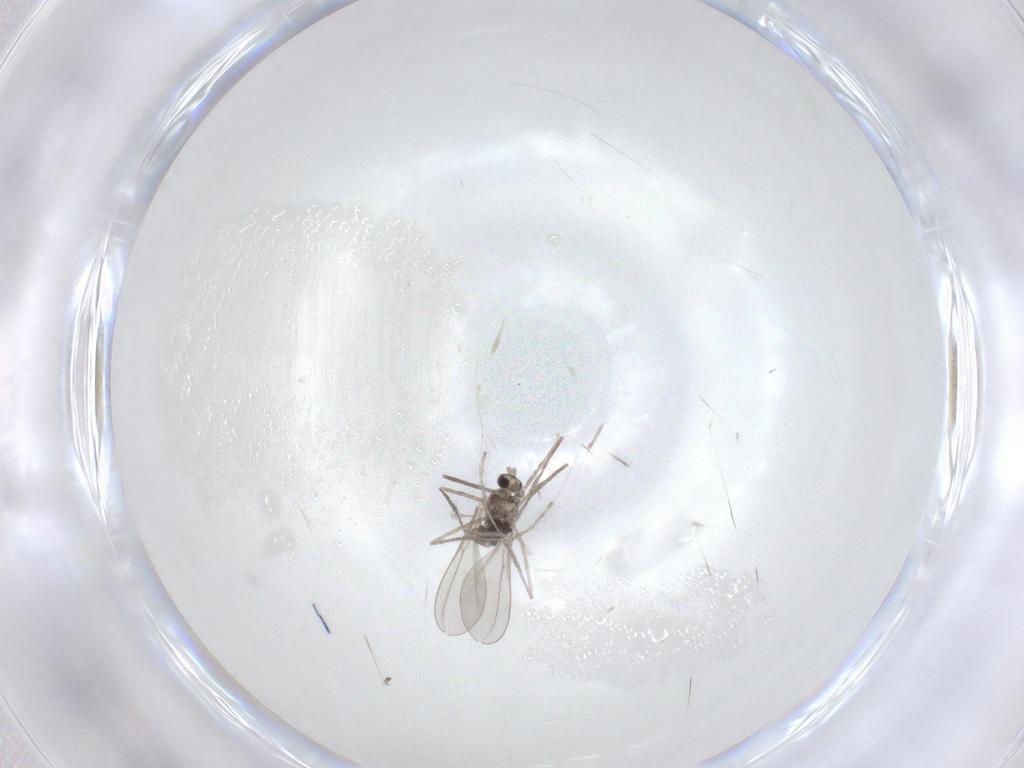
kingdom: Animalia
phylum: Arthropoda
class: Insecta
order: Diptera
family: Cecidomyiidae
